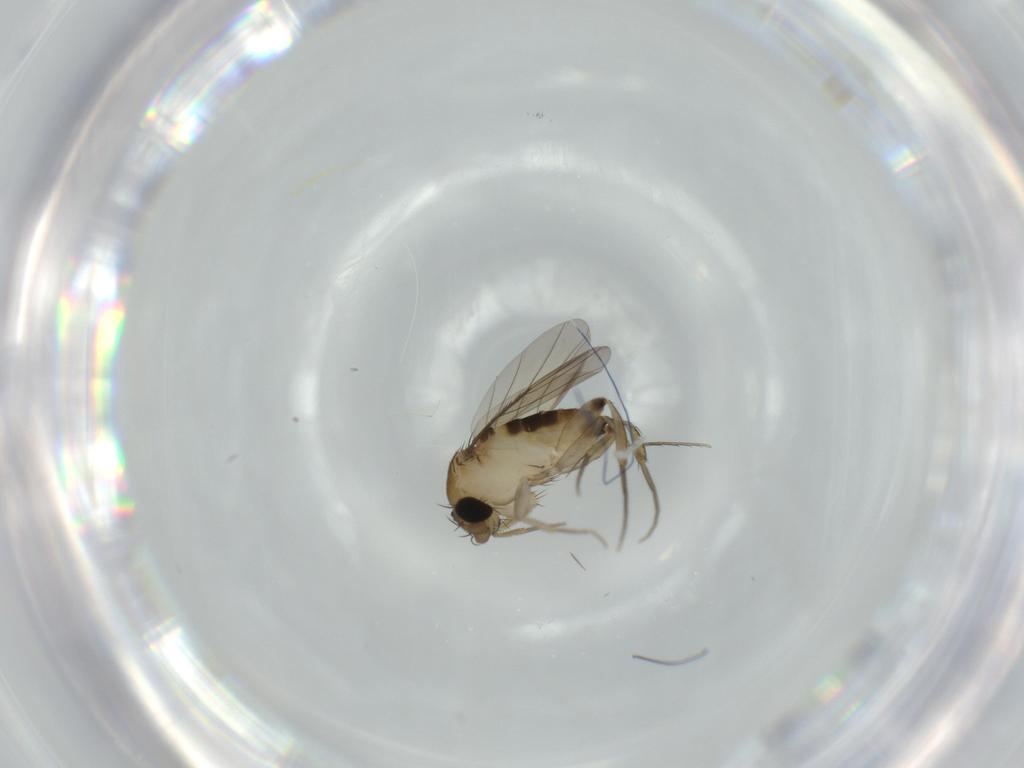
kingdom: Animalia
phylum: Arthropoda
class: Insecta
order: Diptera
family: Phoridae
